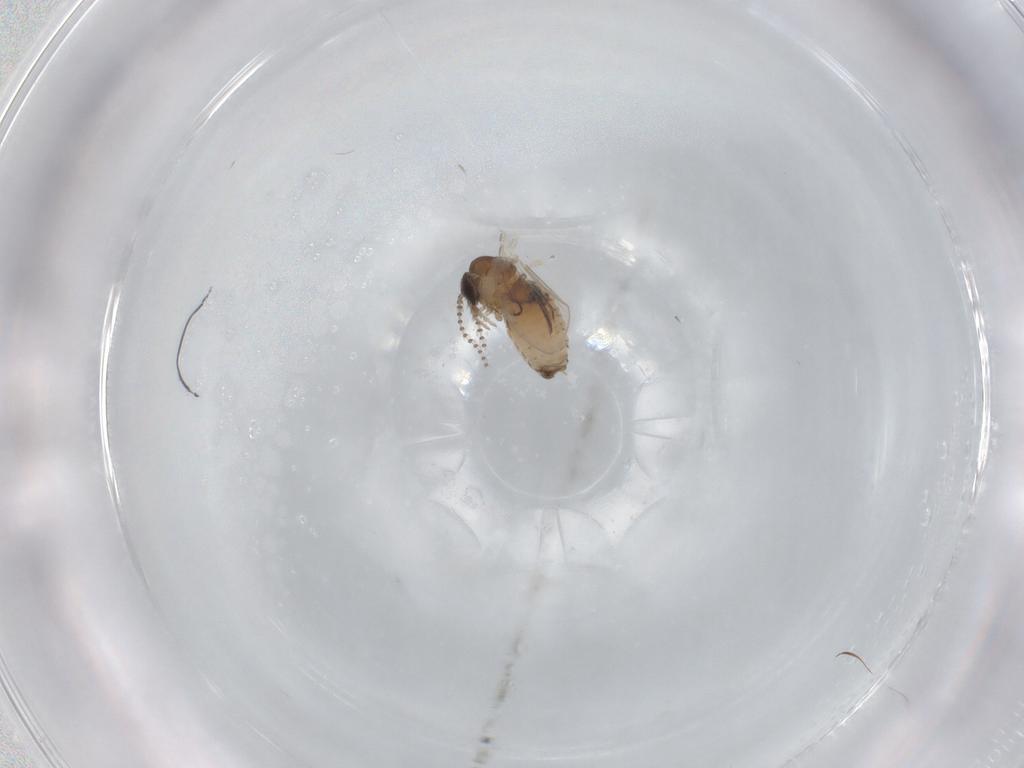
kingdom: Animalia
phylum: Arthropoda
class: Insecta
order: Diptera
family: Psychodidae
